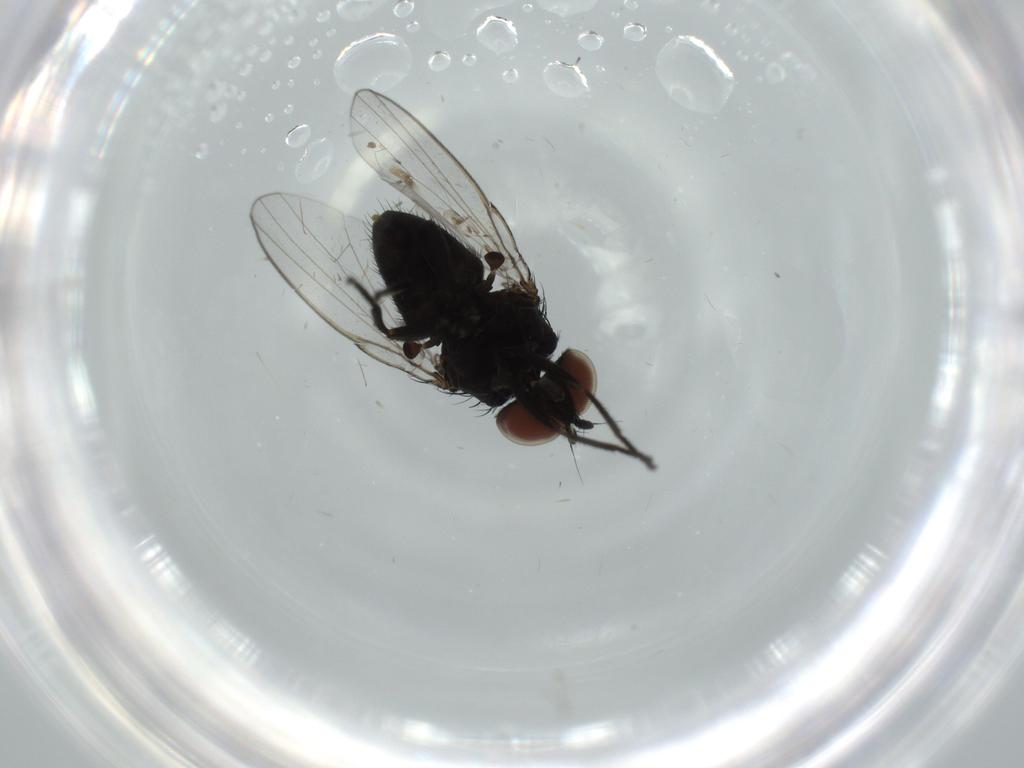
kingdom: Animalia
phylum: Arthropoda
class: Insecta
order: Diptera
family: Milichiidae
